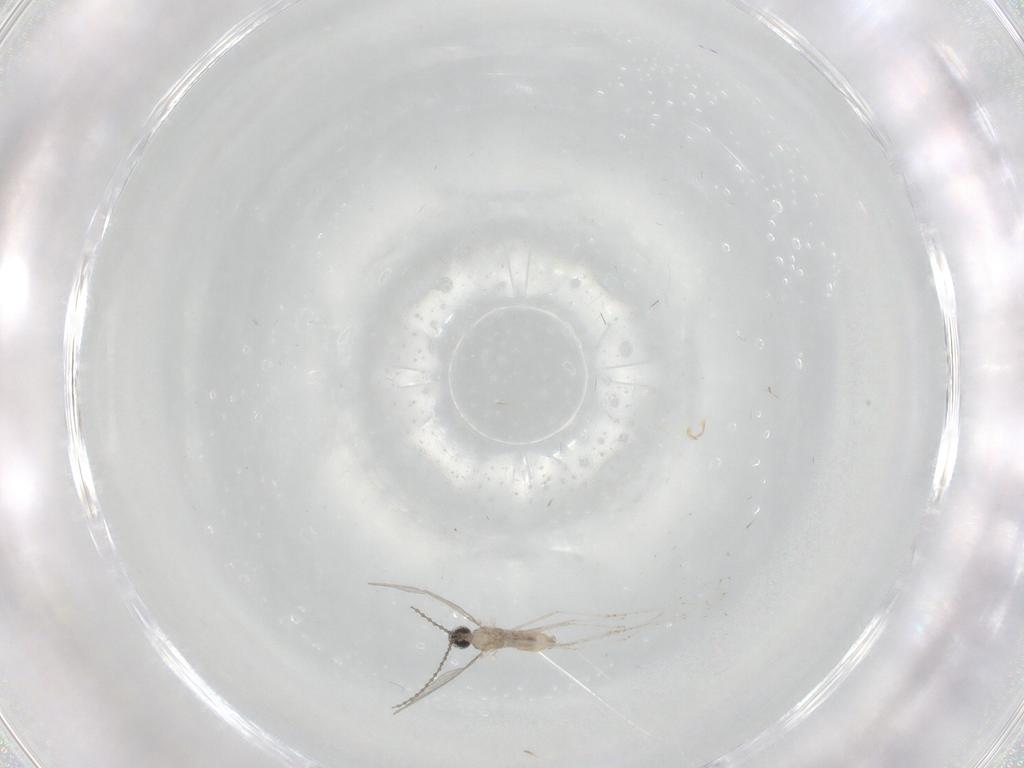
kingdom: Animalia
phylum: Arthropoda
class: Insecta
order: Diptera
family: Cecidomyiidae
